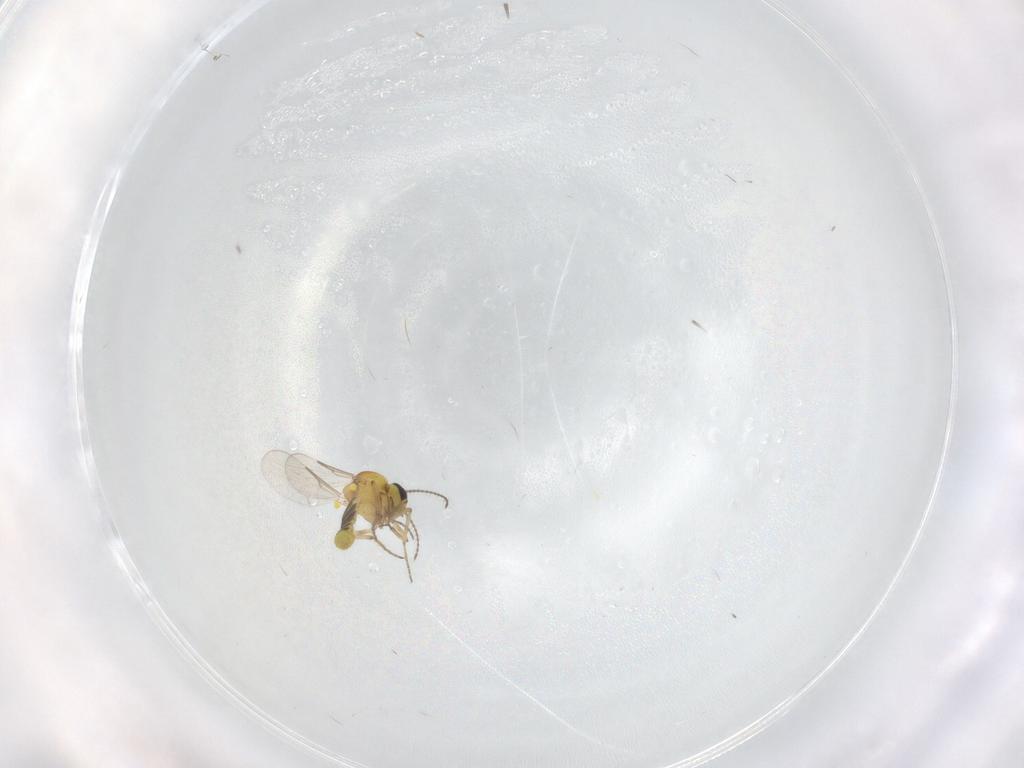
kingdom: Animalia
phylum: Arthropoda
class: Insecta
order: Diptera
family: Ceratopogonidae
